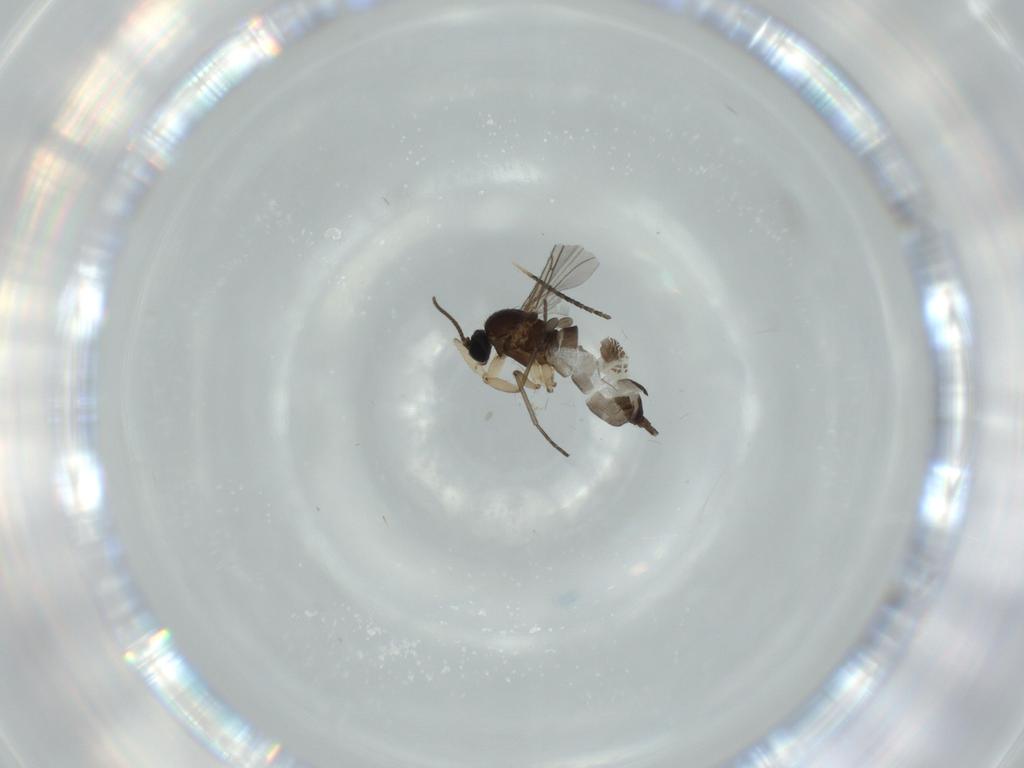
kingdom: Animalia
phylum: Arthropoda
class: Insecta
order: Diptera
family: Sciaridae
